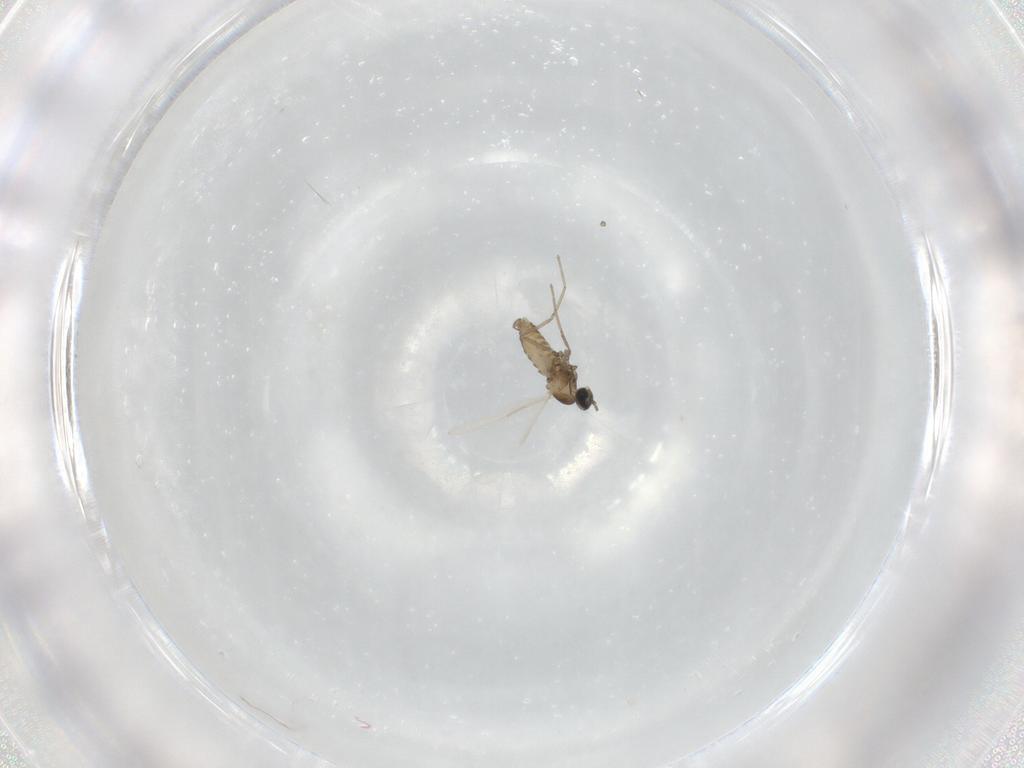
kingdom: Animalia
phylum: Arthropoda
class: Insecta
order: Diptera
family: Cecidomyiidae
